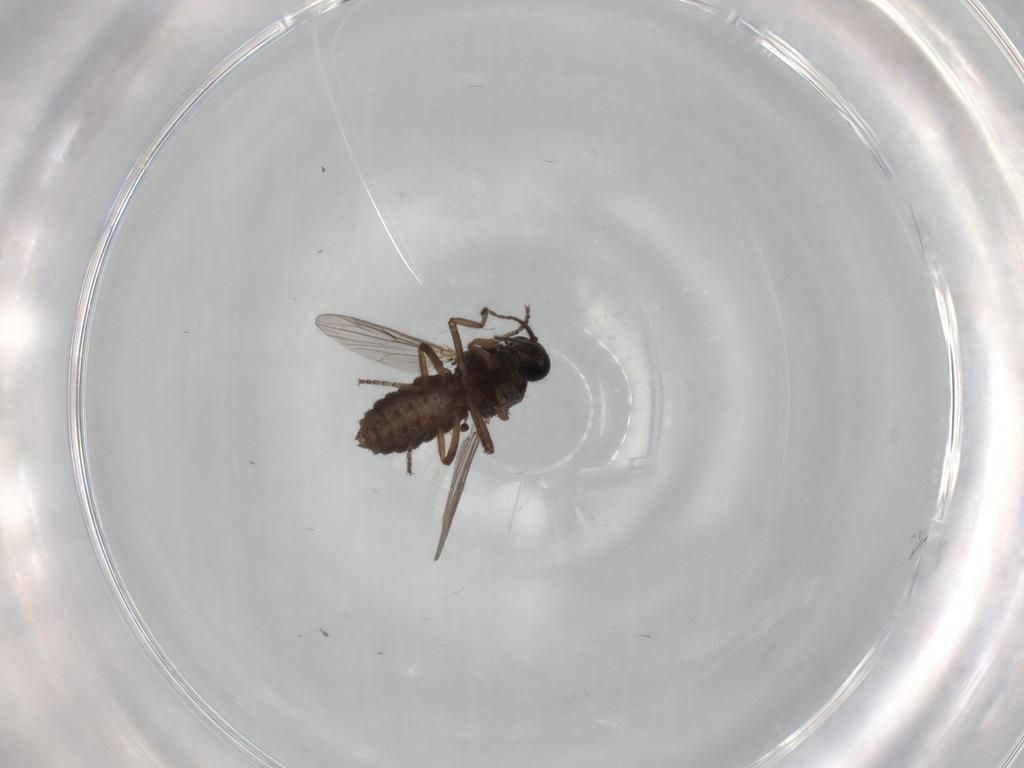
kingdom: Animalia
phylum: Arthropoda
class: Insecta
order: Diptera
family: Ceratopogonidae
